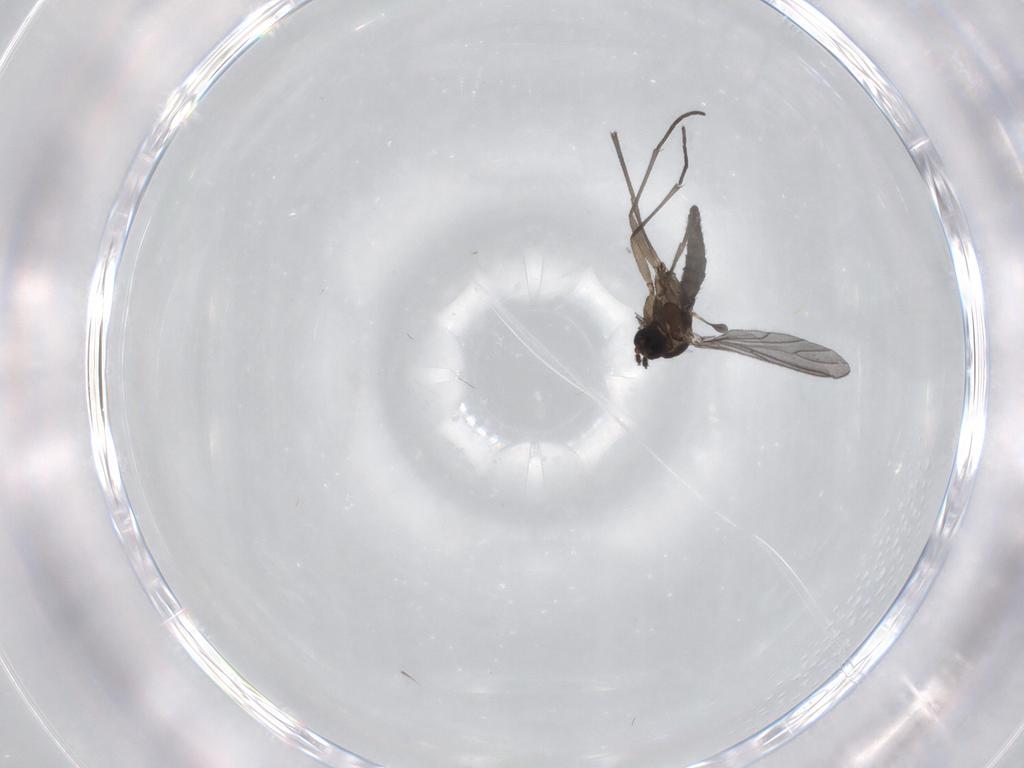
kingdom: Animalia
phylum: Arthropoda
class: Insecta
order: Diptera
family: Sciaridae
